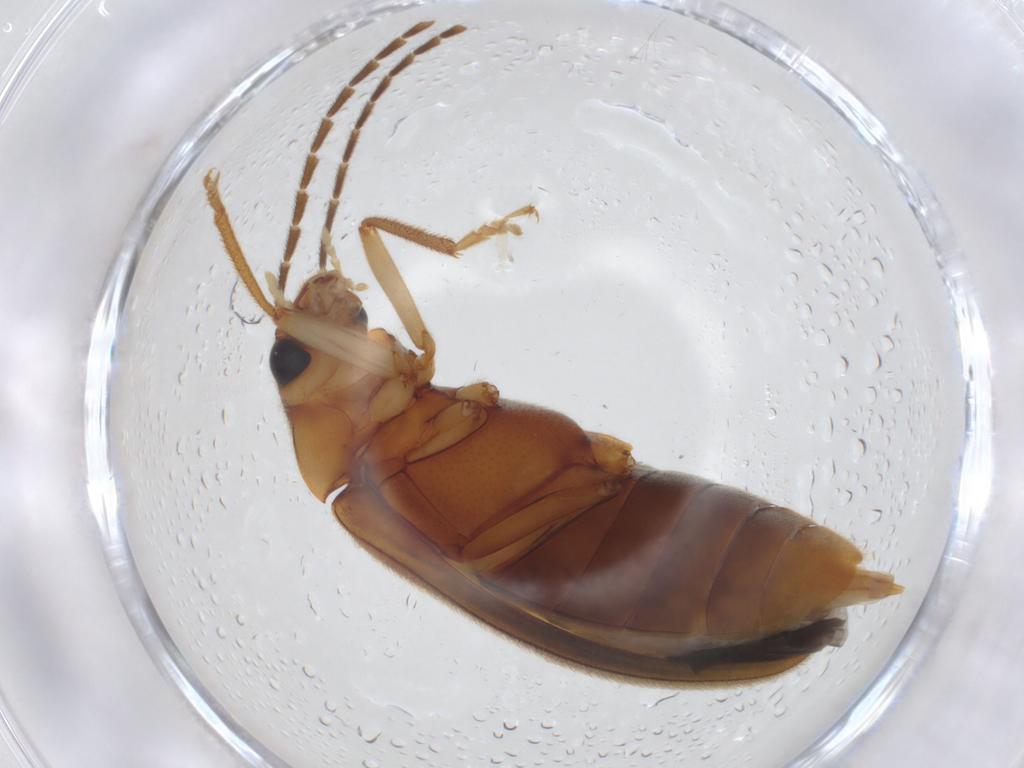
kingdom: Animalia
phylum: Arthropoda
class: Insecta
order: Coleoptera
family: Ptilodactylidae
